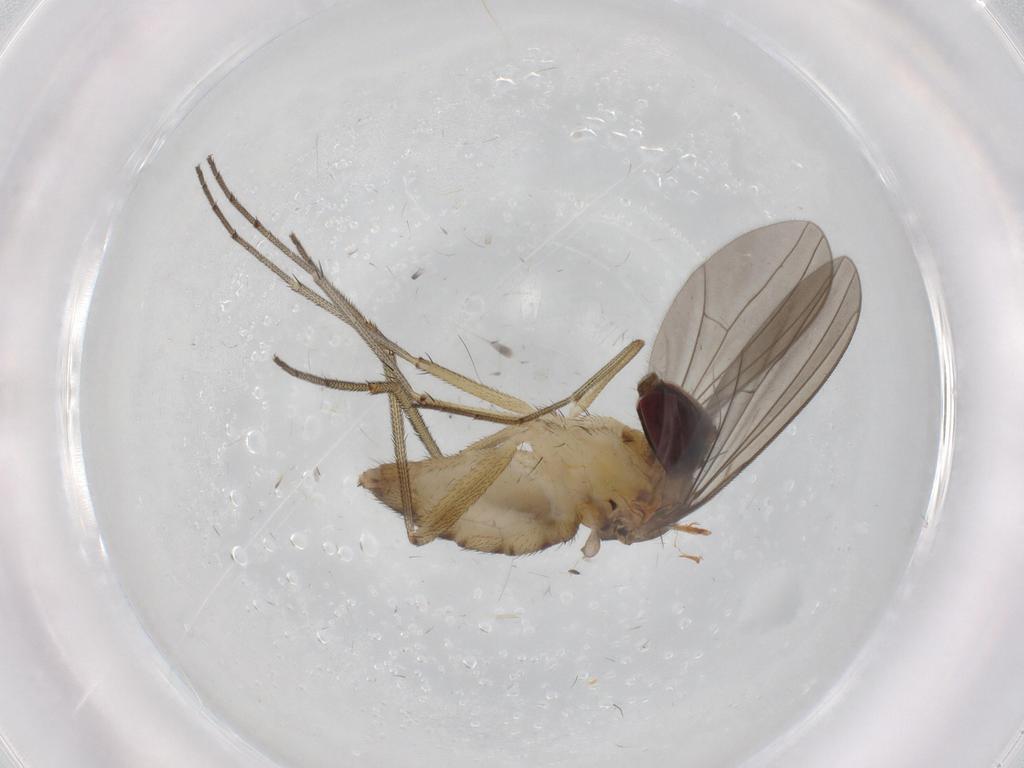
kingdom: Animalia
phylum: Arthropoda
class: Insecta
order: Diptera
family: Dolichopodidae
